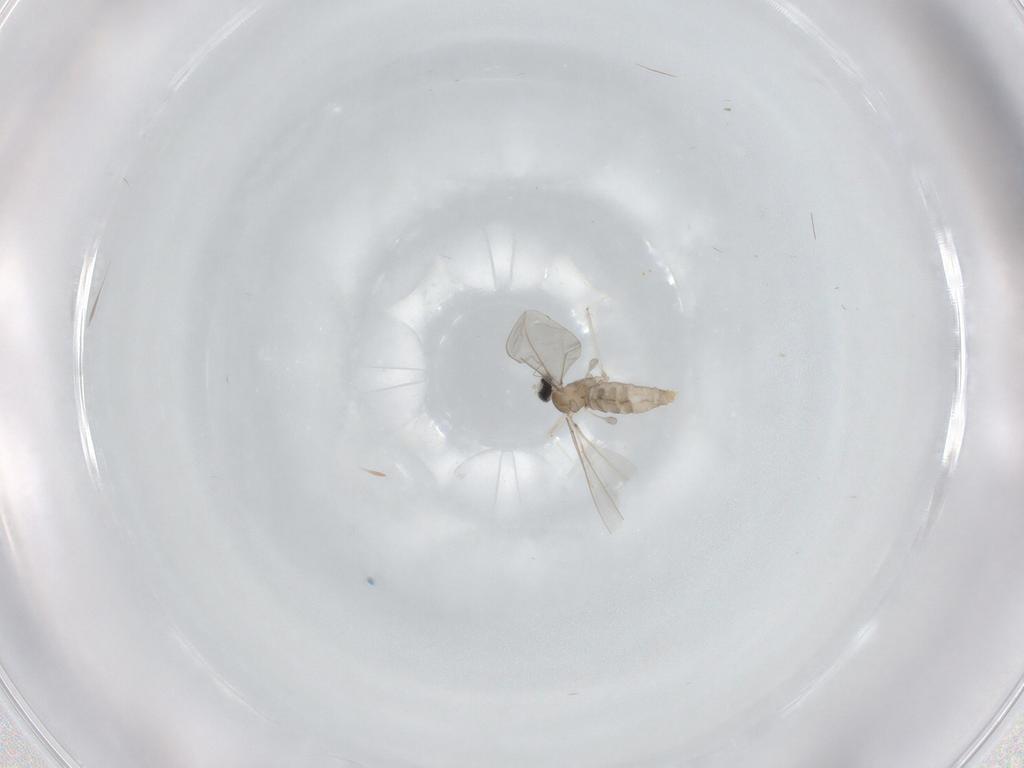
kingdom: Animalia
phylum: Arthropoda
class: Insecta
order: Diptera
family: Cecidomyiidae
